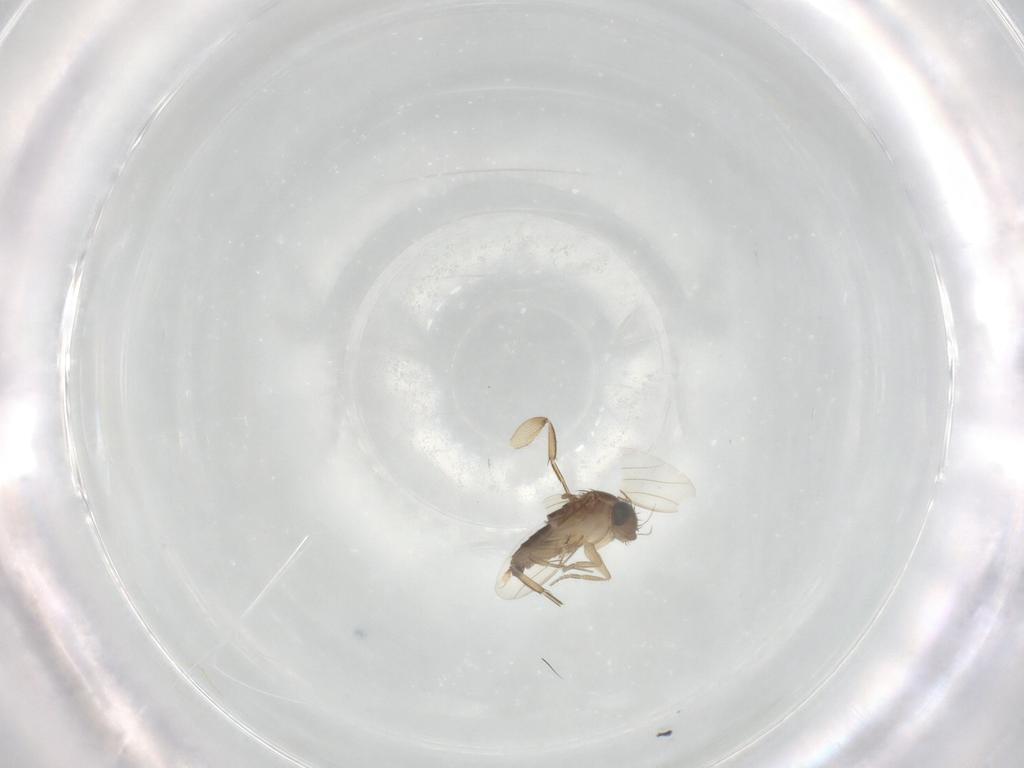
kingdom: Animalia
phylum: Arthropoda
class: Insecta
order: Diptera
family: Phoridae
